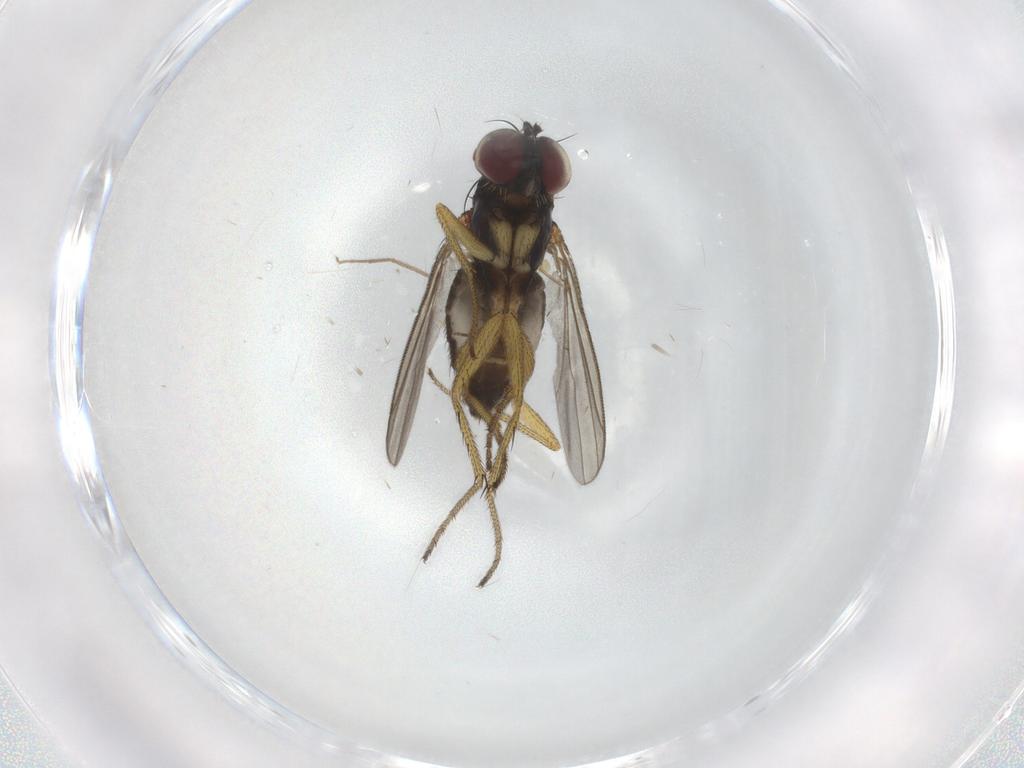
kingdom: Animalia
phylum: Arthropoda
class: Insecta
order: Diptera
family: Dolichopodidae
